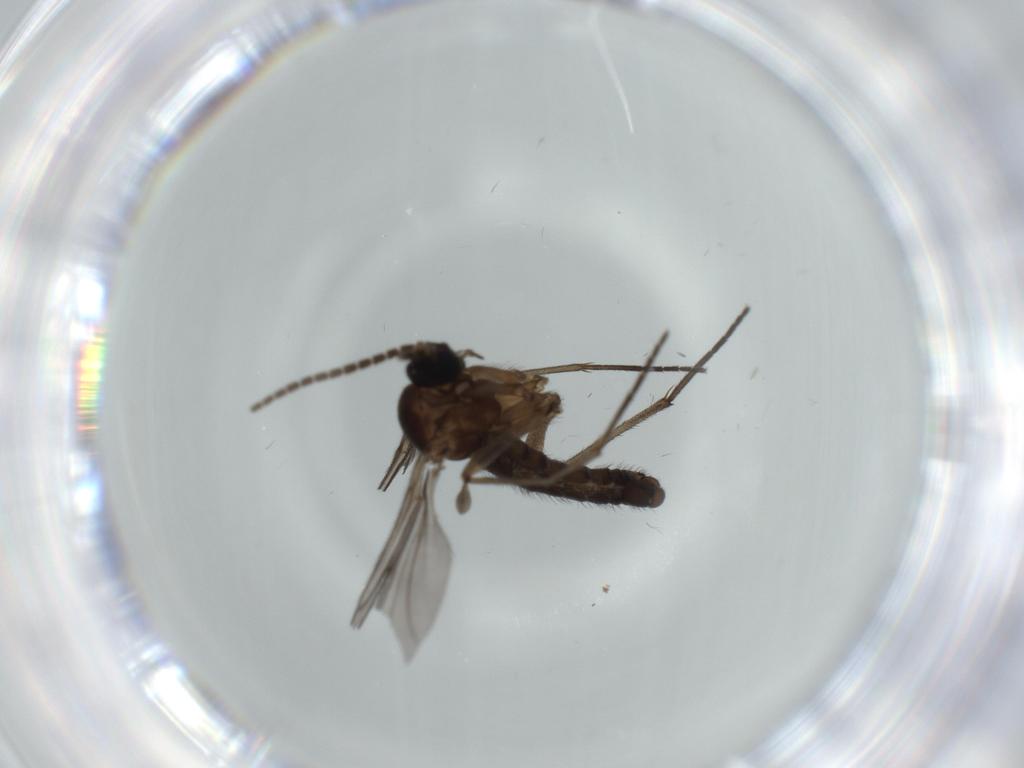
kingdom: Animalia
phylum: Arthropoda
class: Insecta
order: Diptera
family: Sciaridae
